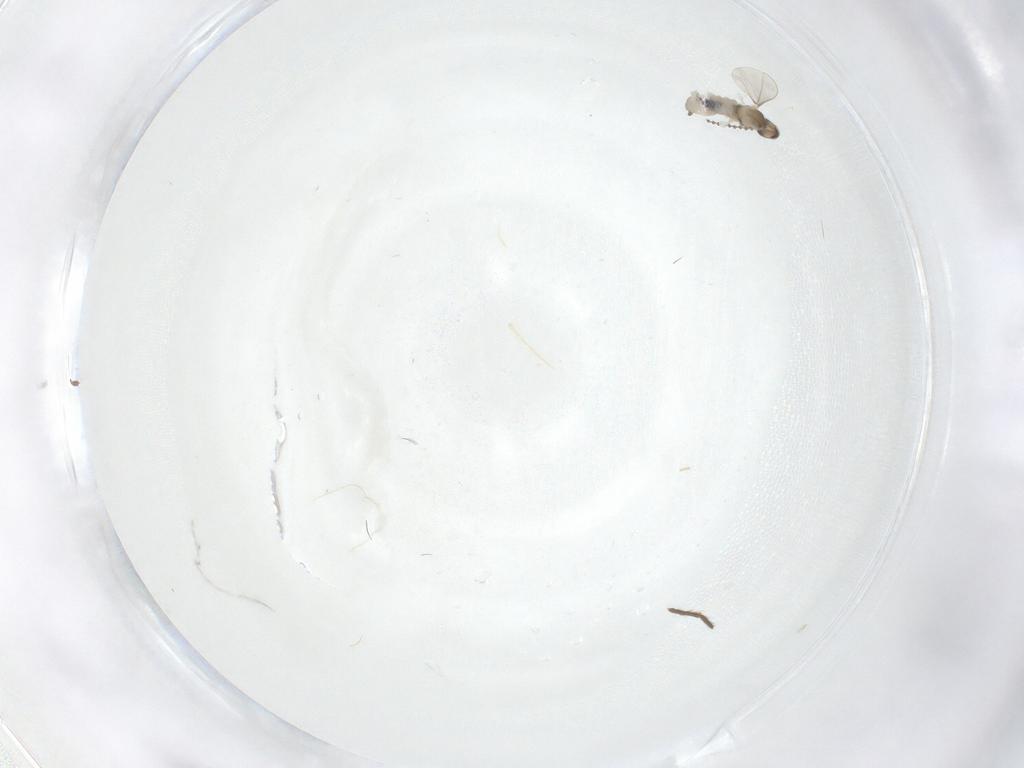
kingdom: Animalia
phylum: Arthropoda
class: Insecta
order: Diptera
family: Cecidomyiidae
